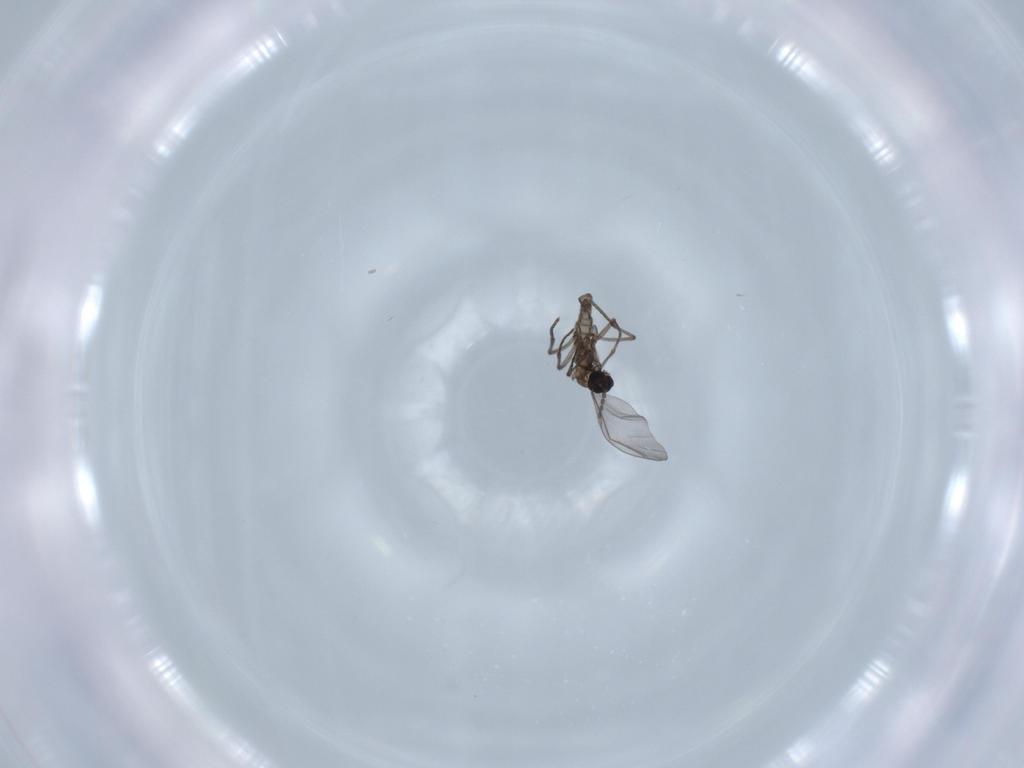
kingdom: Animalia
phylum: Arthropoda
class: Insecta
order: Diptera
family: Sciaridae
